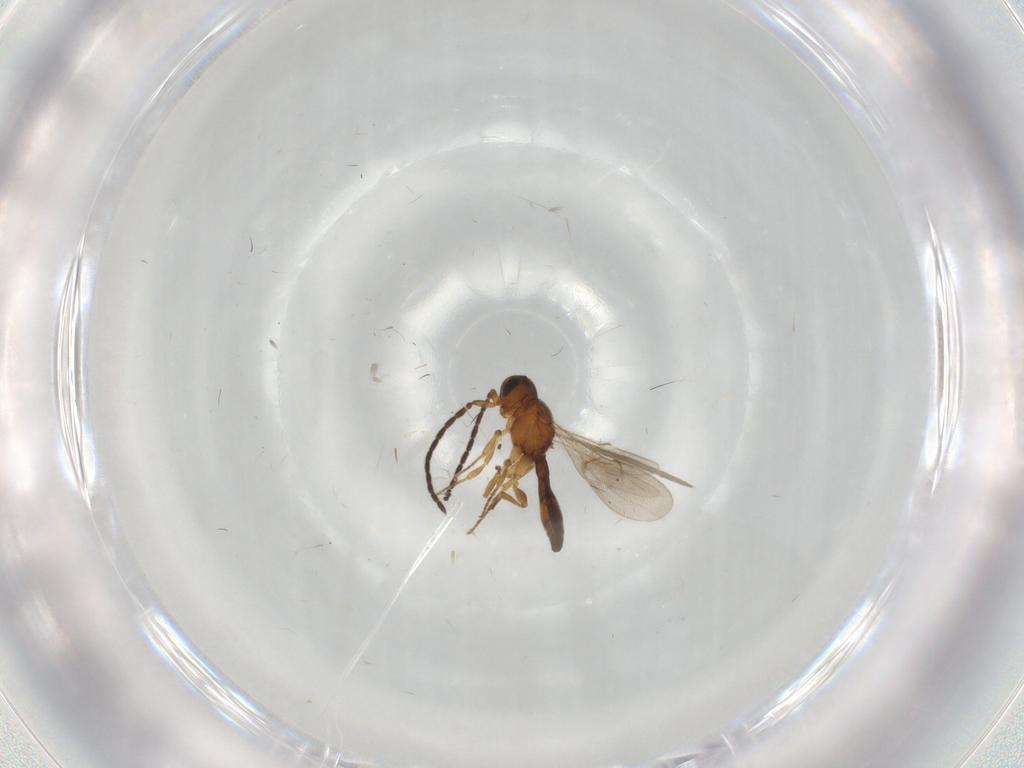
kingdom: Animalia
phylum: Arthropoda
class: Insecta
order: Hymenoptera
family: Scelionidae
